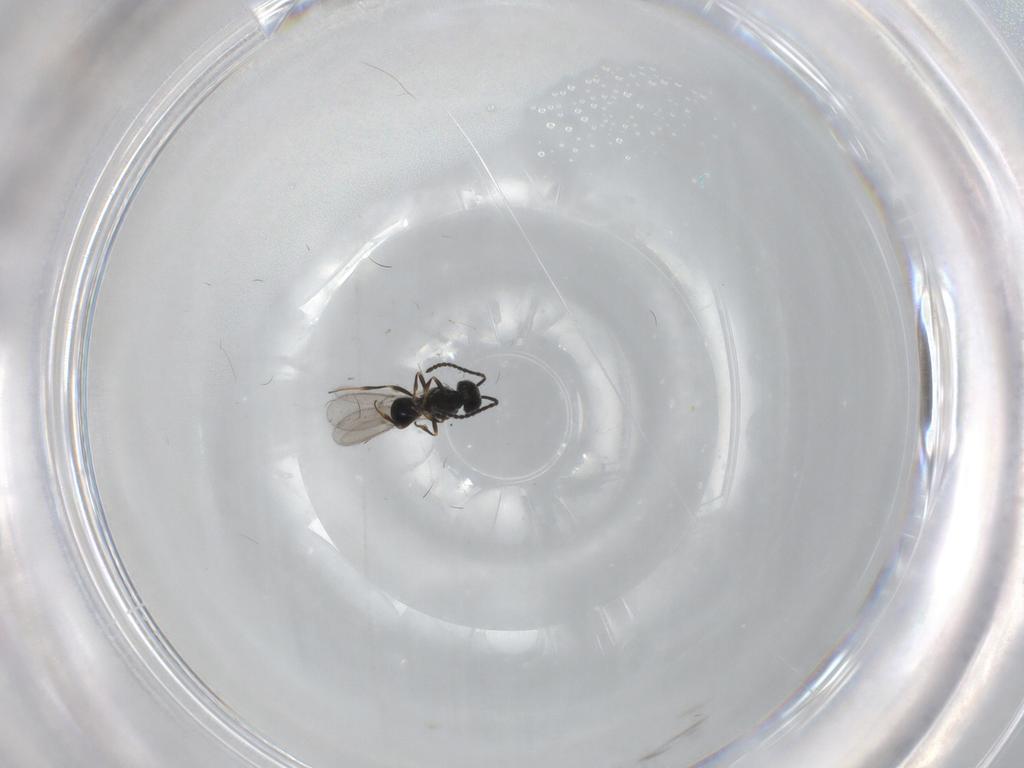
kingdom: Animalia
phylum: Arthropoda
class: Insecta
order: Hymenoptera
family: Scelionidae
